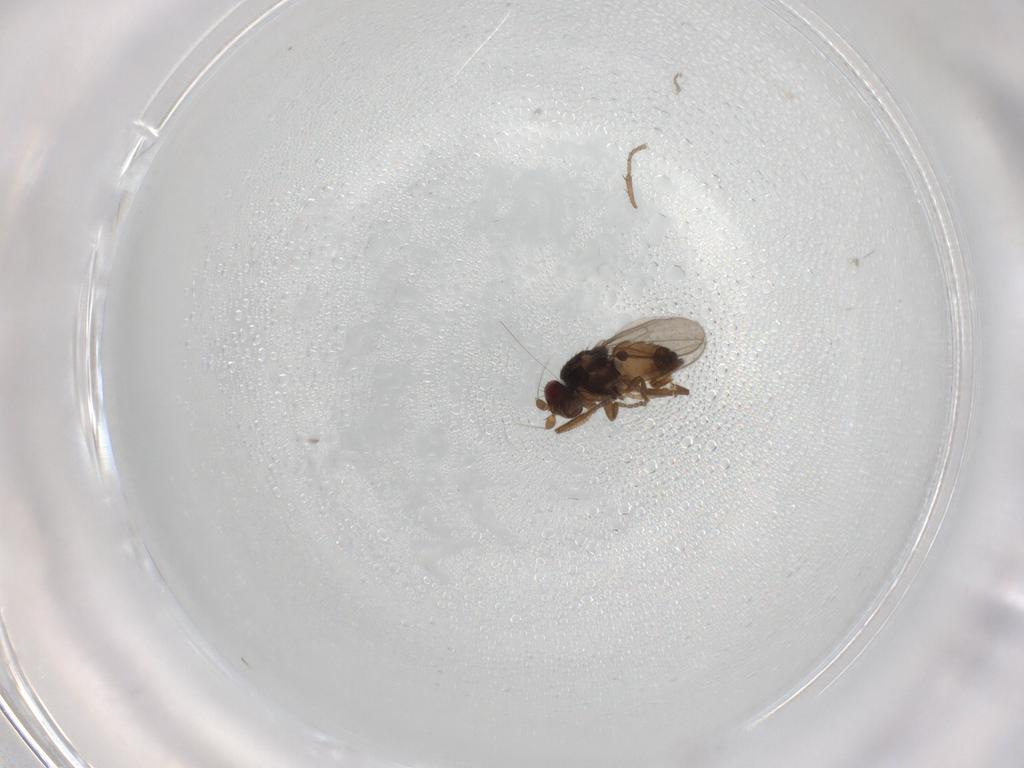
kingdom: Animalia
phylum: Arthropoda
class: Insecta
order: Diptera
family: Sphaeroceridae
